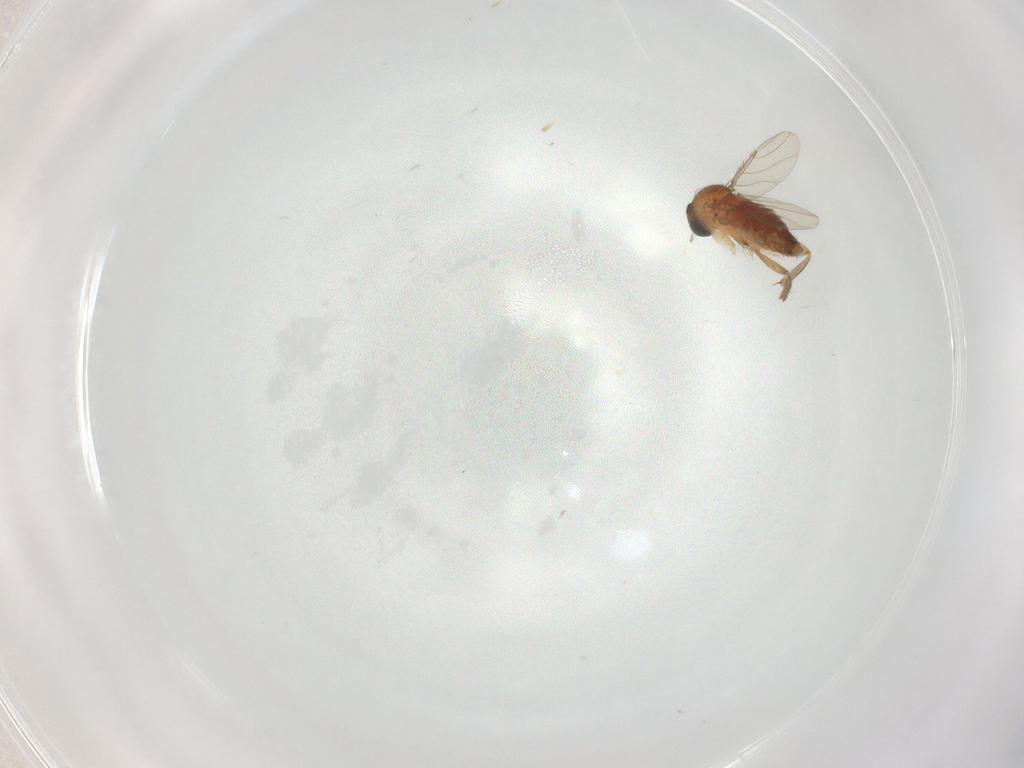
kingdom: Animalia
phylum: Arthropoda
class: Insecta
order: Diptera
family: Phoridae
